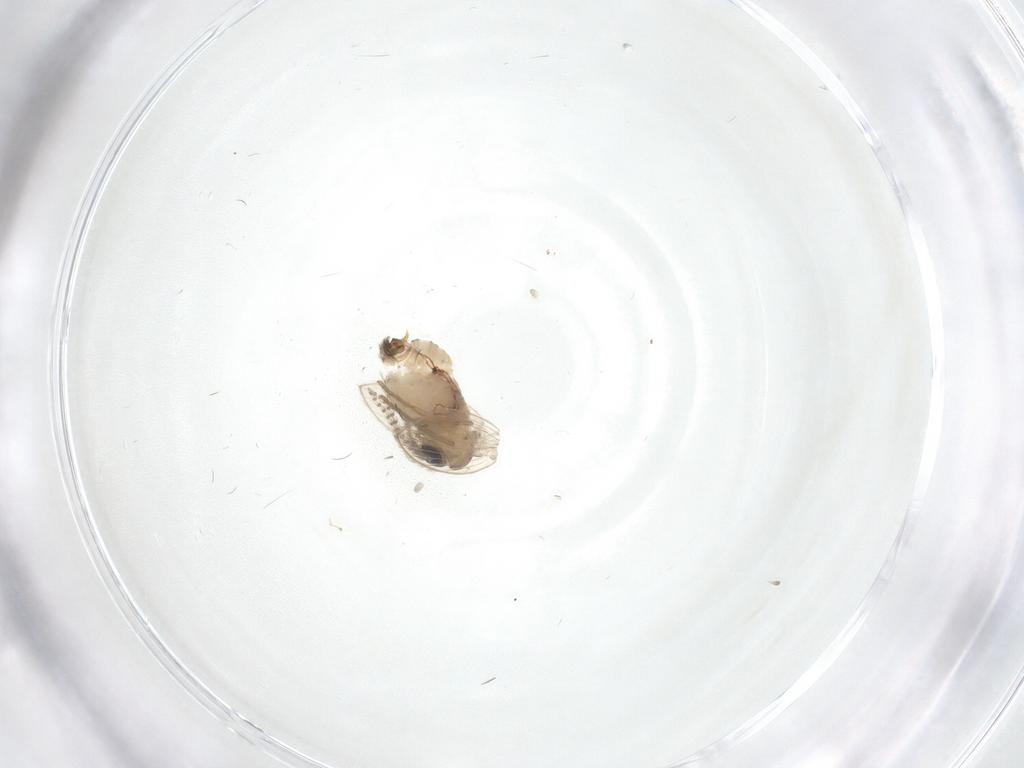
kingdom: Animalia
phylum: Arthropoda
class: Insecta
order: Diptera
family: Psychodidae
